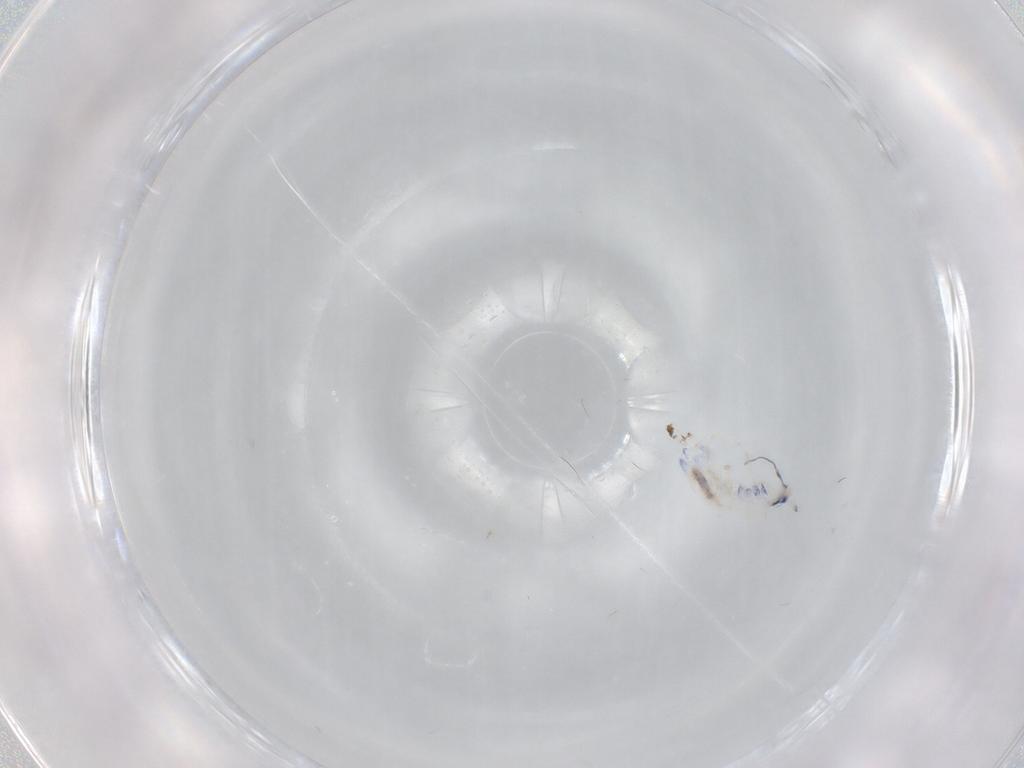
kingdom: Animalia
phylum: Arthropoda
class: Collembola
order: Entomobryomorpha
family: Entomobryidae
